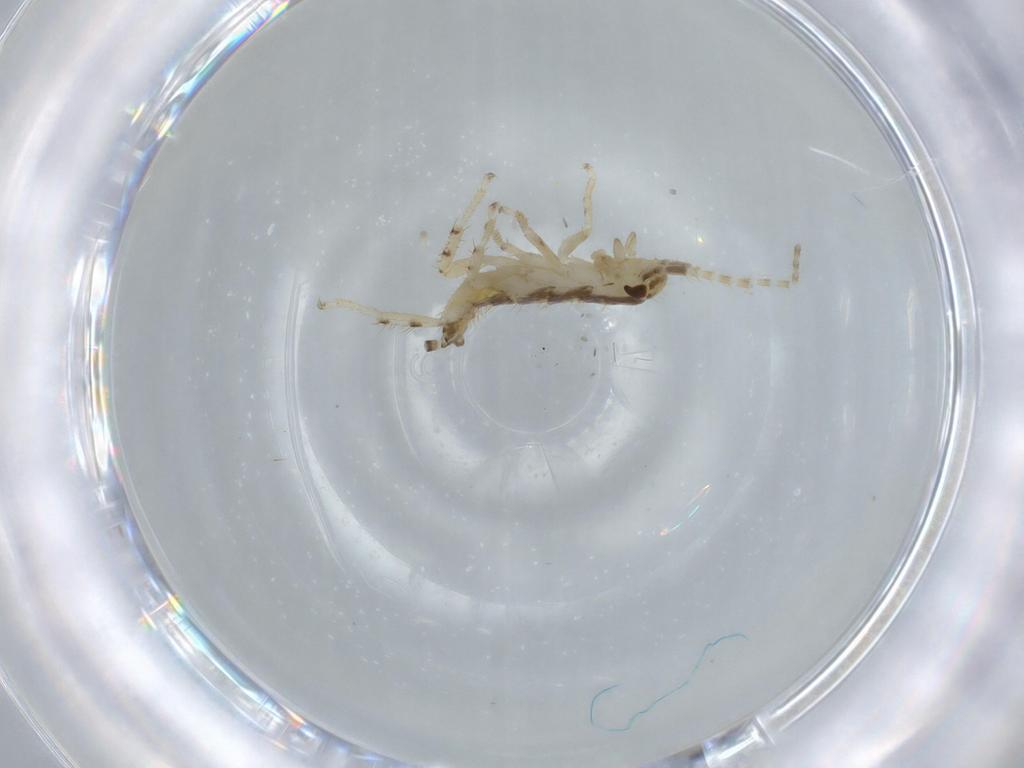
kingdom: Animalia
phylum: Arthropoda
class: Insecta
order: Blattodea
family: Ectobiidae
